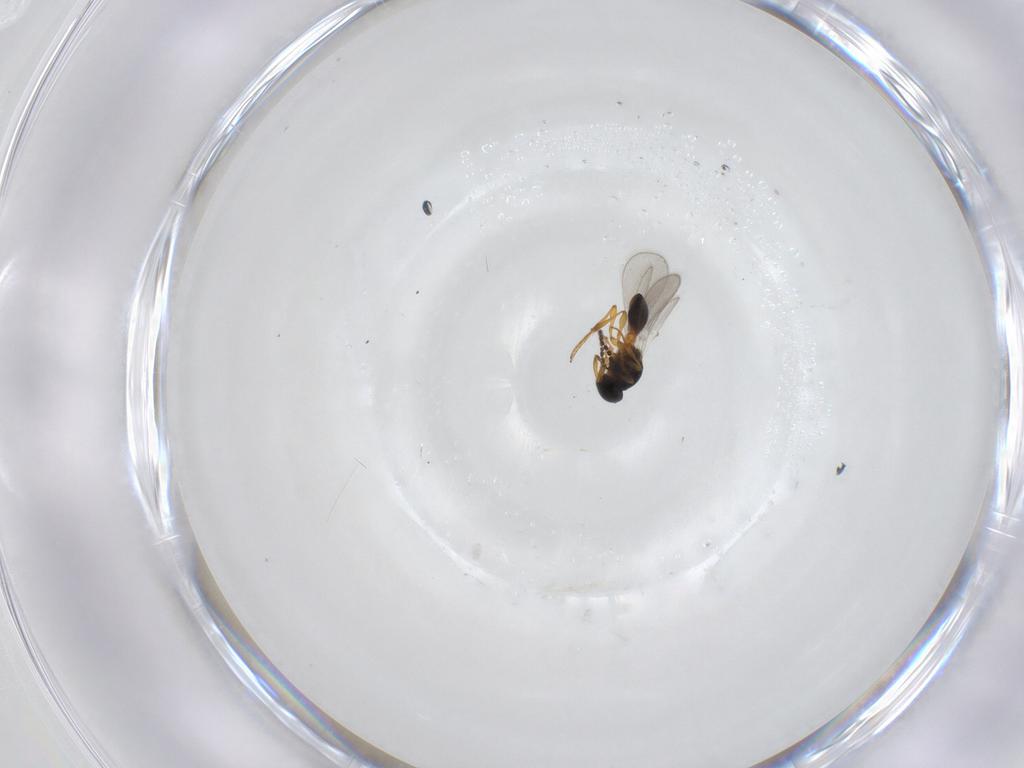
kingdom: Animalia
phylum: Arthropoda
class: Insecta
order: Hymenoptera
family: Platygastridae
